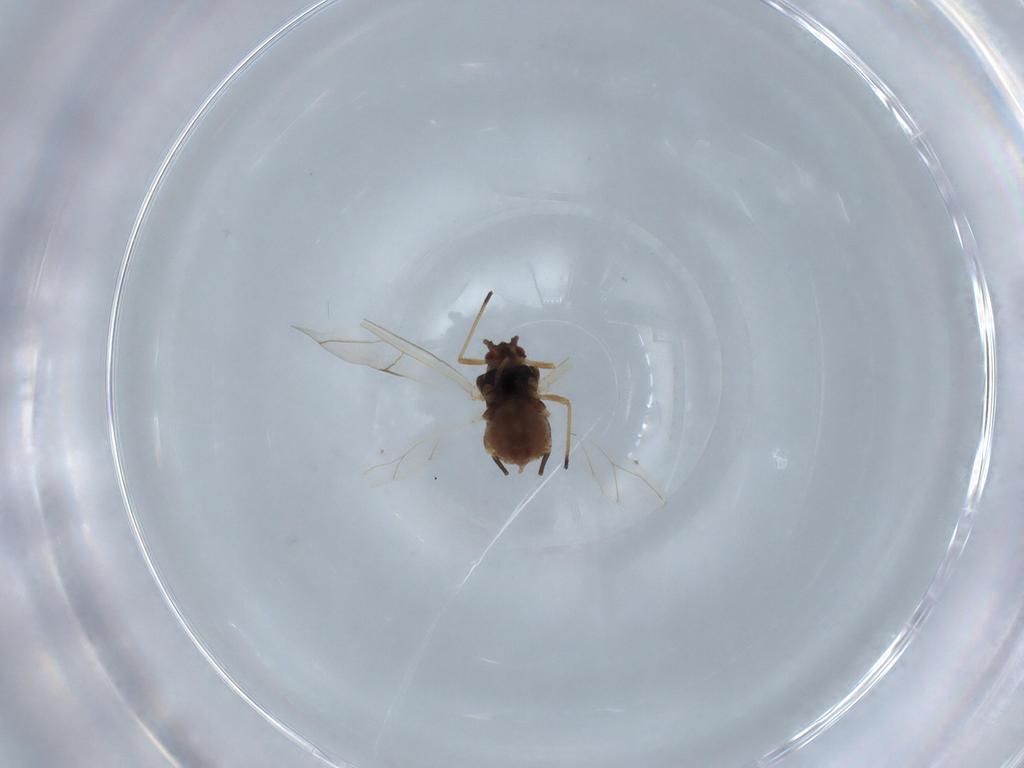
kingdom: Animalia
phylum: Arthropoda
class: Insecta
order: Hemiptera
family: Aphididae
